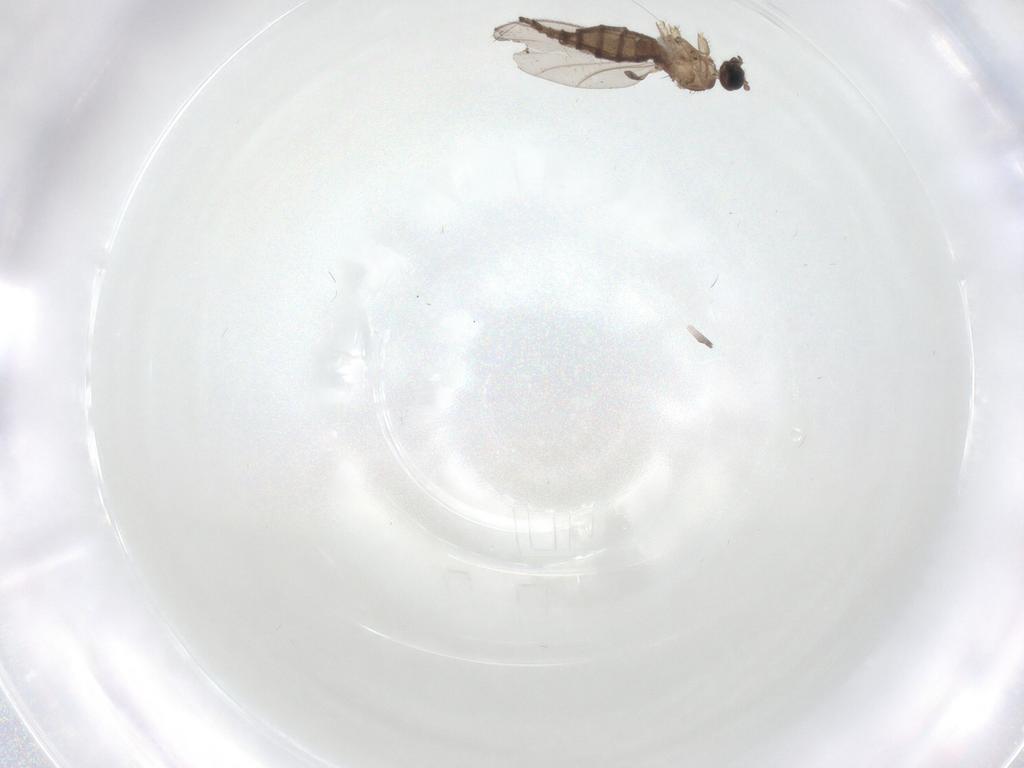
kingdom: Animalia
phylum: Arthropoda
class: Insecta
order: Diptera
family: Sciaridae
